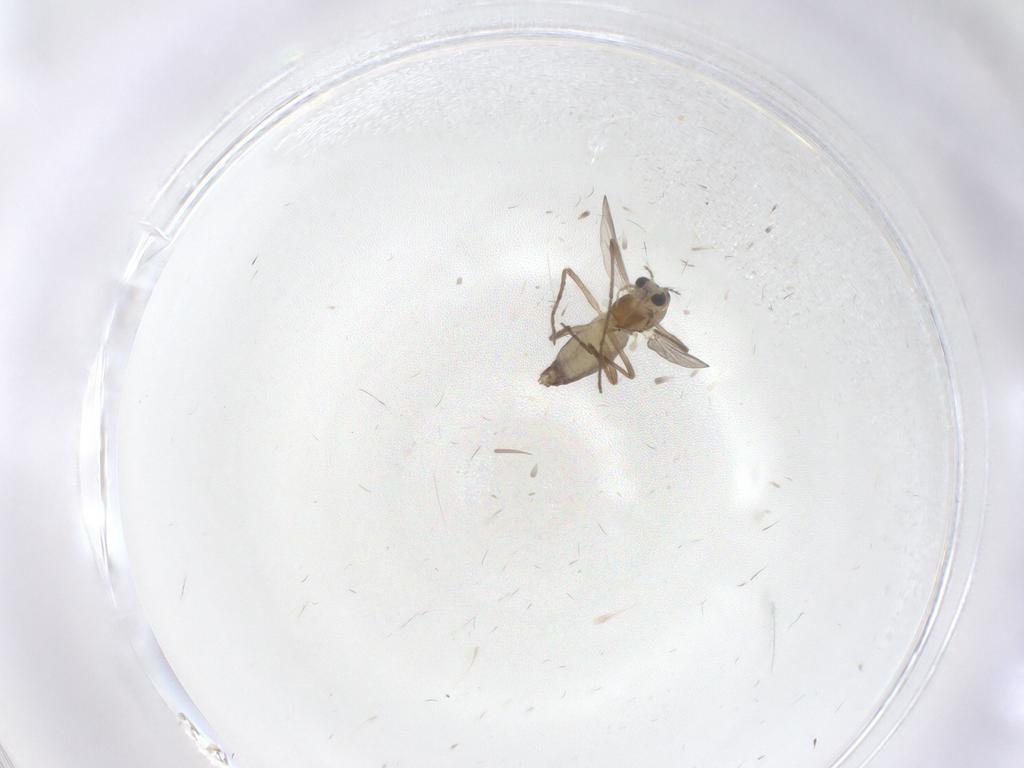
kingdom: Animalia
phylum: Arthropoda
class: Insecta
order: Diptera
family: Chironomidae
